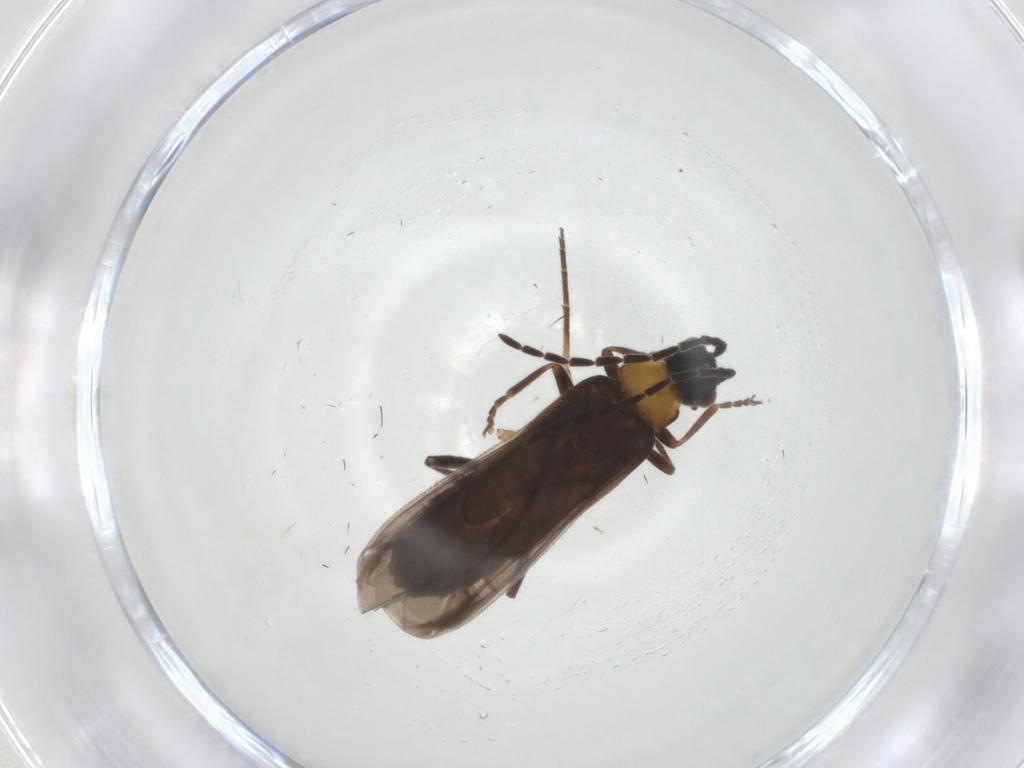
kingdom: Animalia
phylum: Arthropoda
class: Insecta
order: Coleoptera
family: Cantharidae
